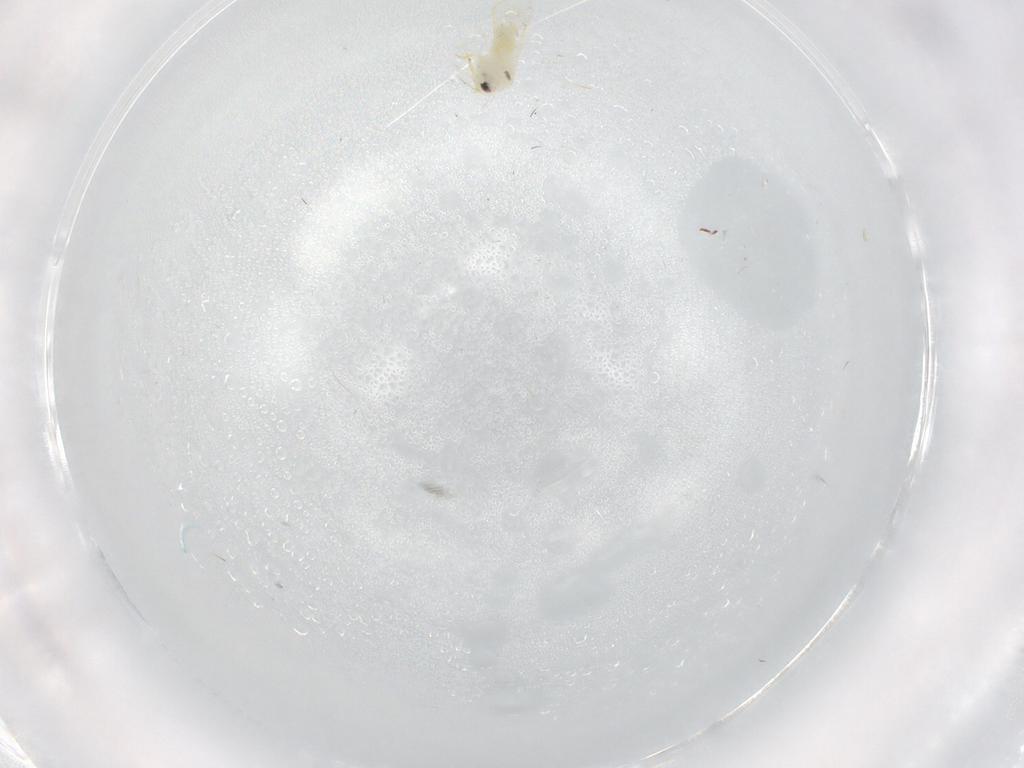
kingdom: Animalia
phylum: Arthropoda
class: Insecta
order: Hemiptera
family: Aleyrodidae
